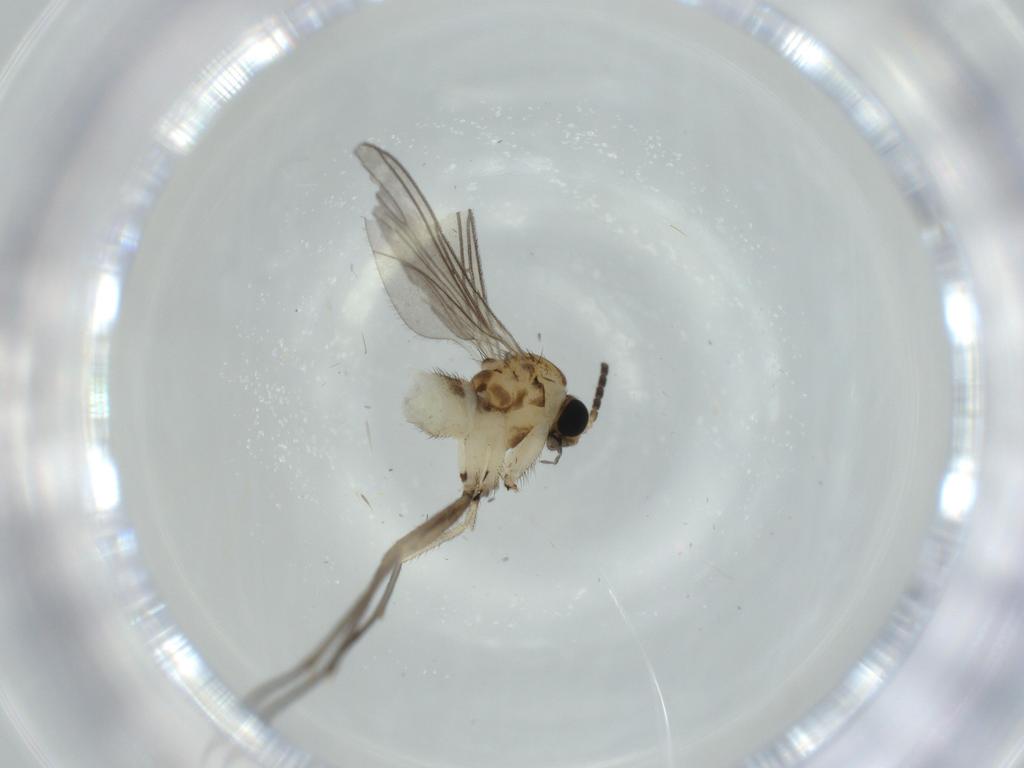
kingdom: Animalia
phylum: Arthropoda
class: Insecta
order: Diptera
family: Sciaridae
